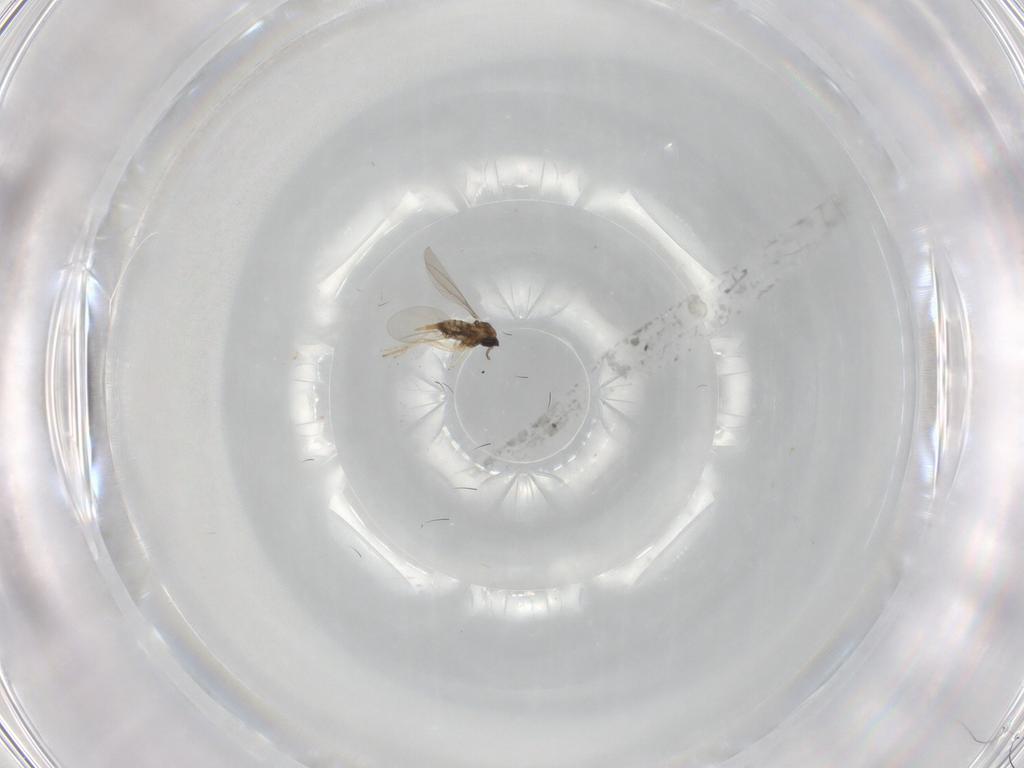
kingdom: Animalia
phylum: Arthropoda
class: Insecta
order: Diptera
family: Cecidomyiidae
